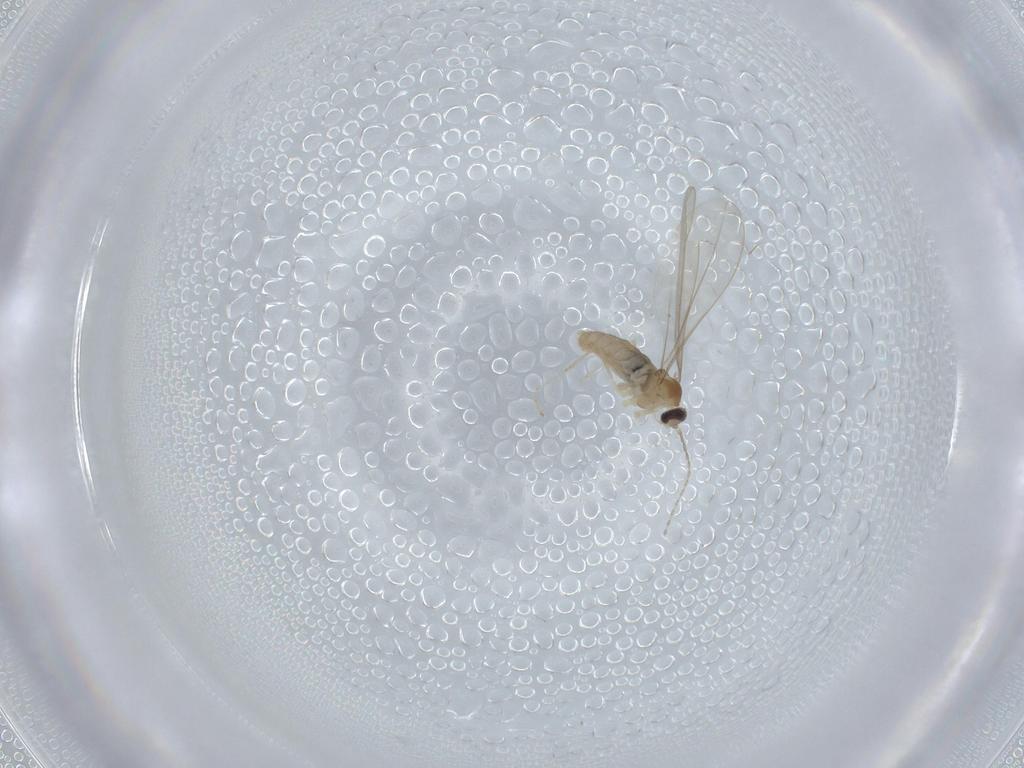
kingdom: Animalia
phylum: Arthropoda
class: Insecta
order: Diptera
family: Cecidomyiidae
